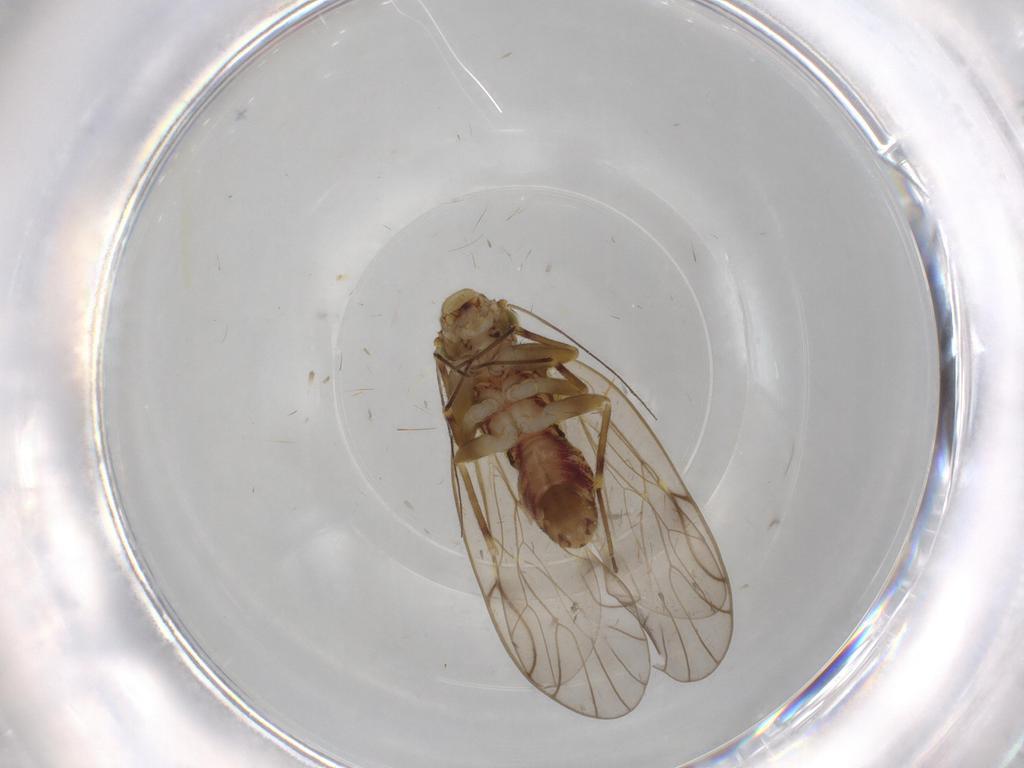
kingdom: Animalia
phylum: Arthropoda
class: Insecta
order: Psocodea
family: Philotarsidae
